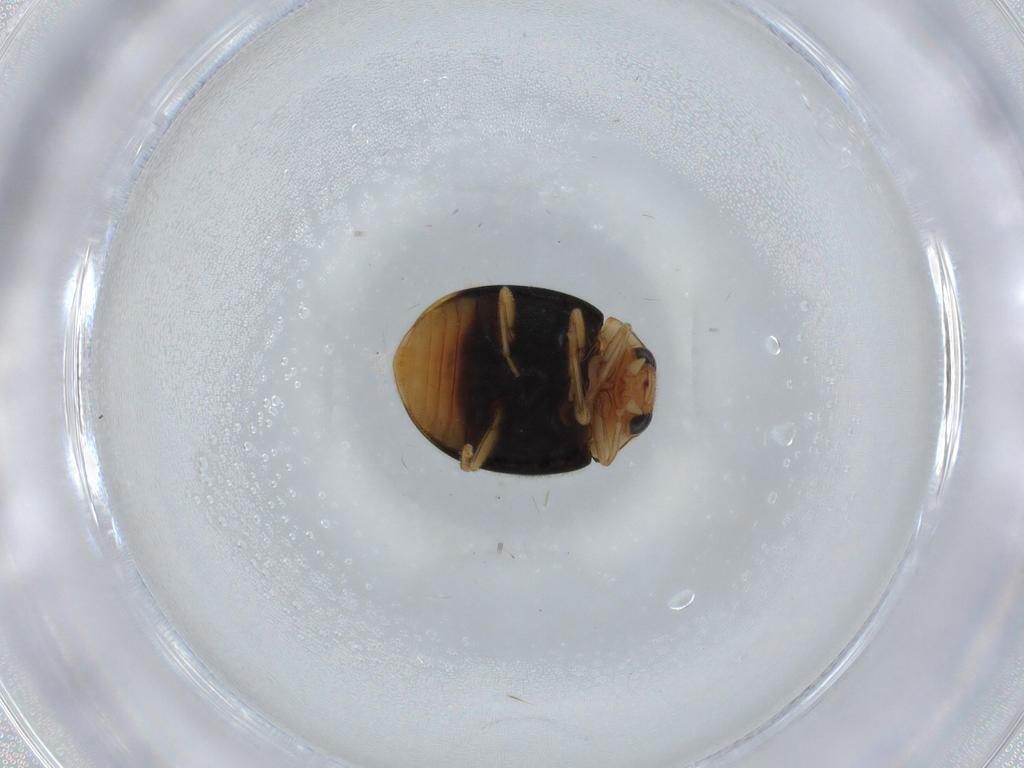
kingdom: Animalia
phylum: Arthropoda
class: Insecta
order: Coleoptera
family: Coccinellidae
